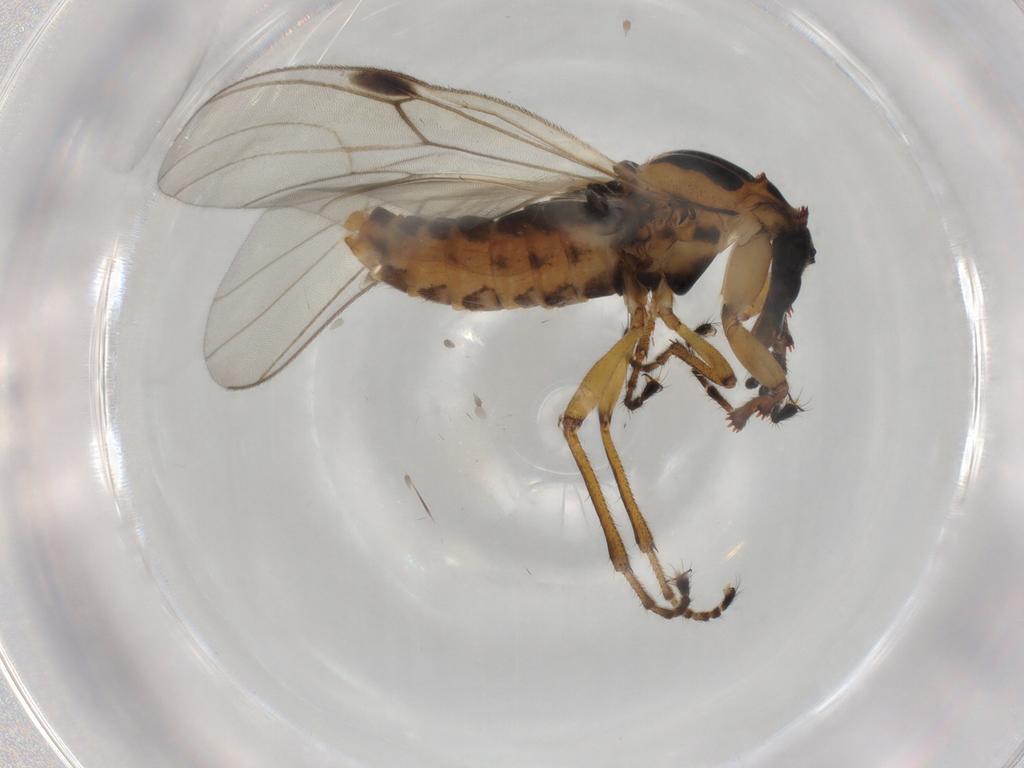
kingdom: Animalia
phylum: Arthropoda
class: Insecta
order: Diptera
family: Bibionidae
